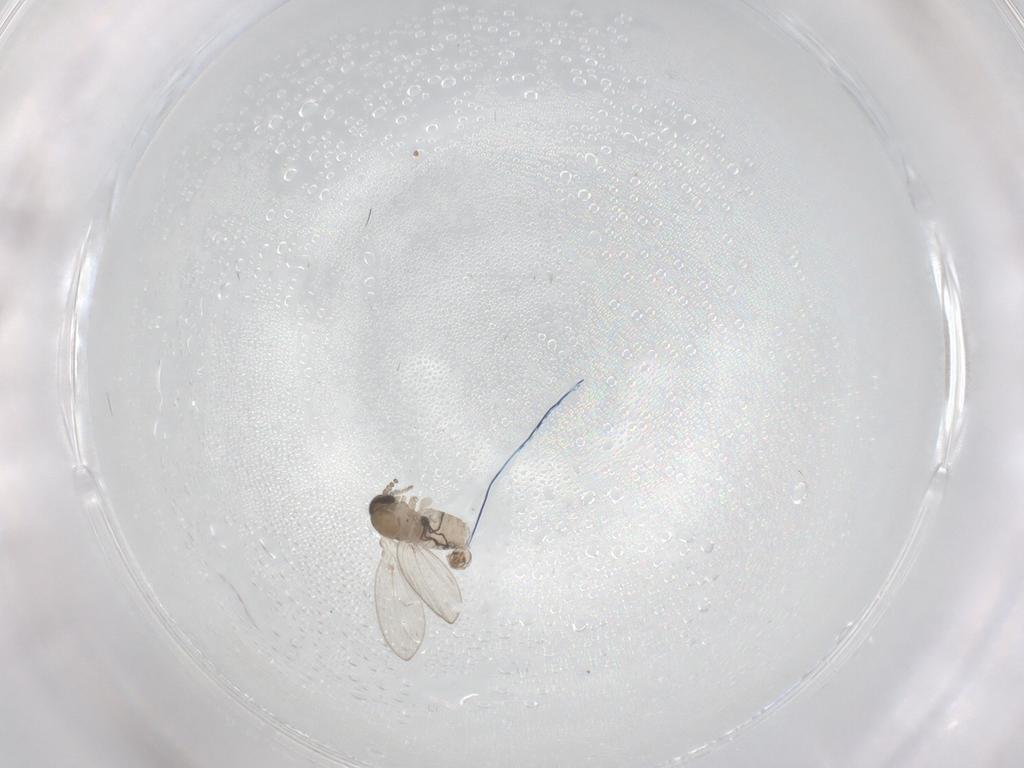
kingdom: Animalia
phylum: Arthropoda
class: Insecta
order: Diptera
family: Psychodidae
